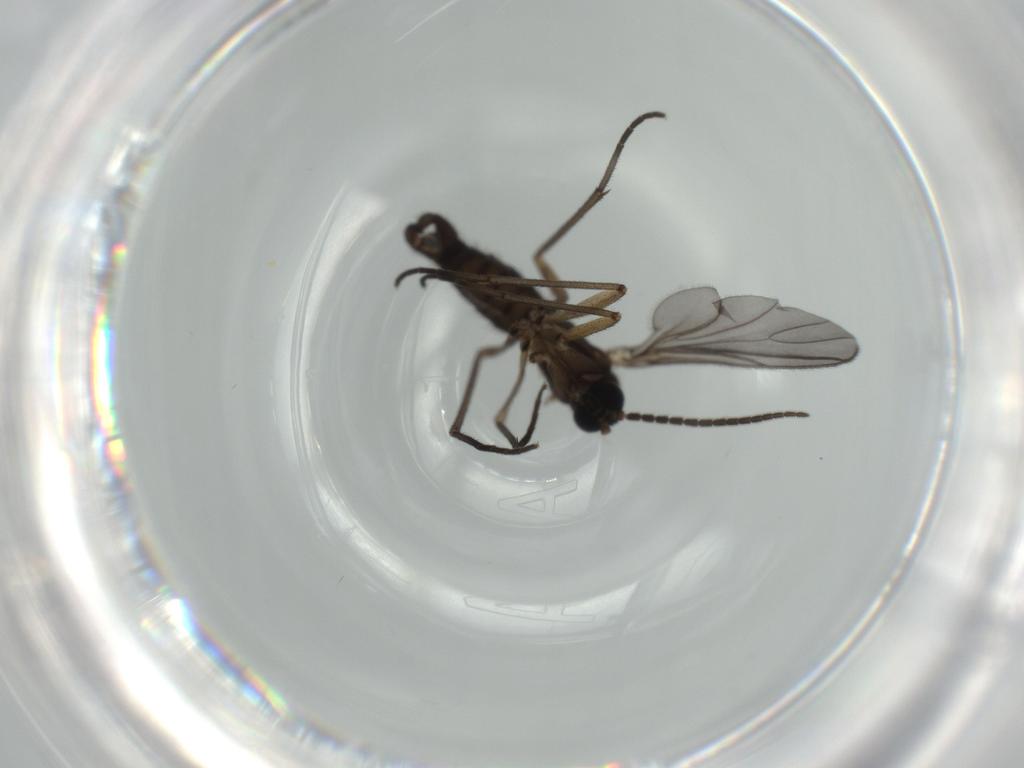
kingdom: Animalia
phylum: Arthropoda
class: Insecta
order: Diptera
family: Sciaridae
